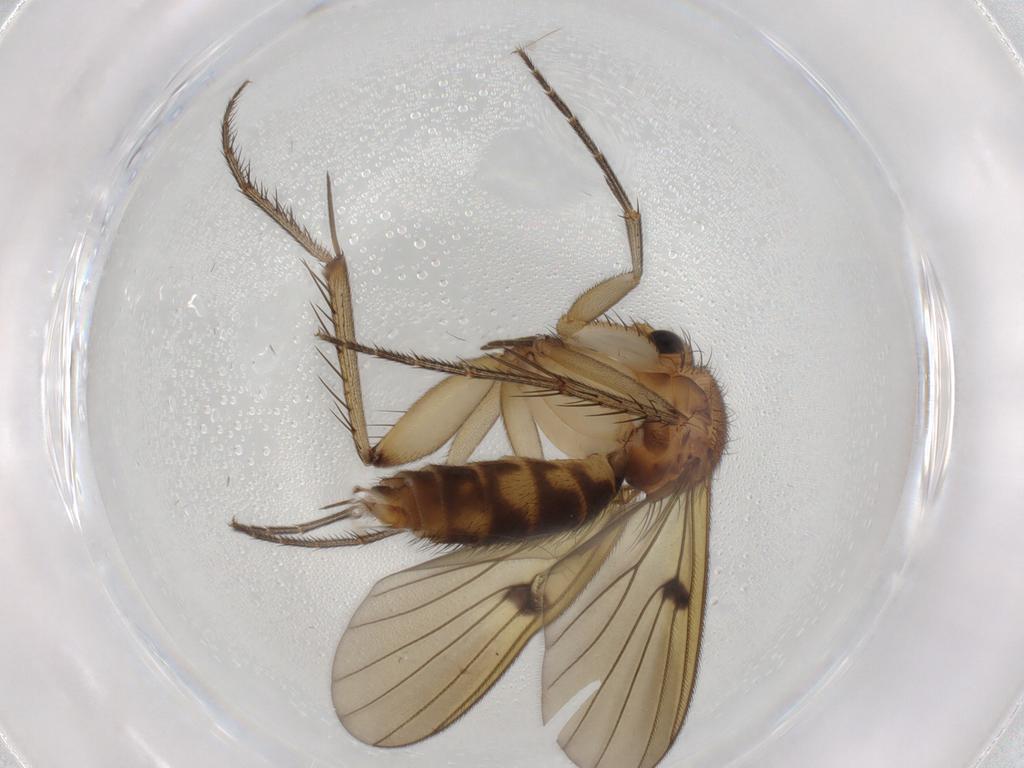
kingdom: Animalia
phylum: Arthropoda
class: Insecta
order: Diptera
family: Mycetophilidae
